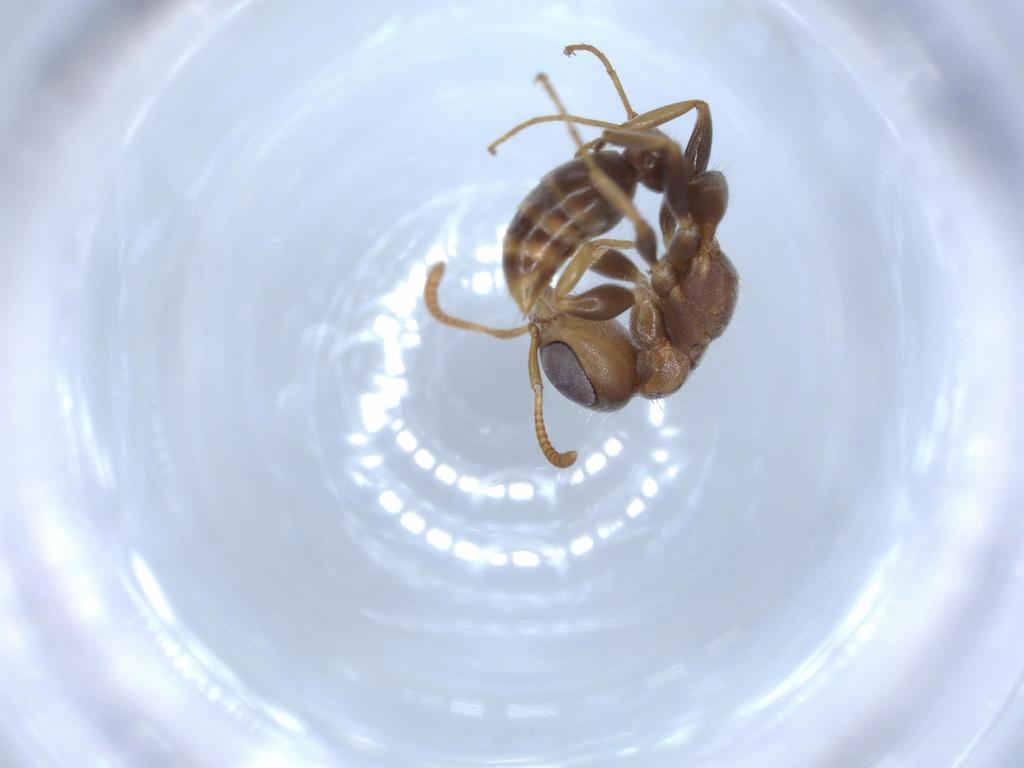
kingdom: Animalia
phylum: Arthropoda
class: Insecta
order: Hymenoptera
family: Formicidae
